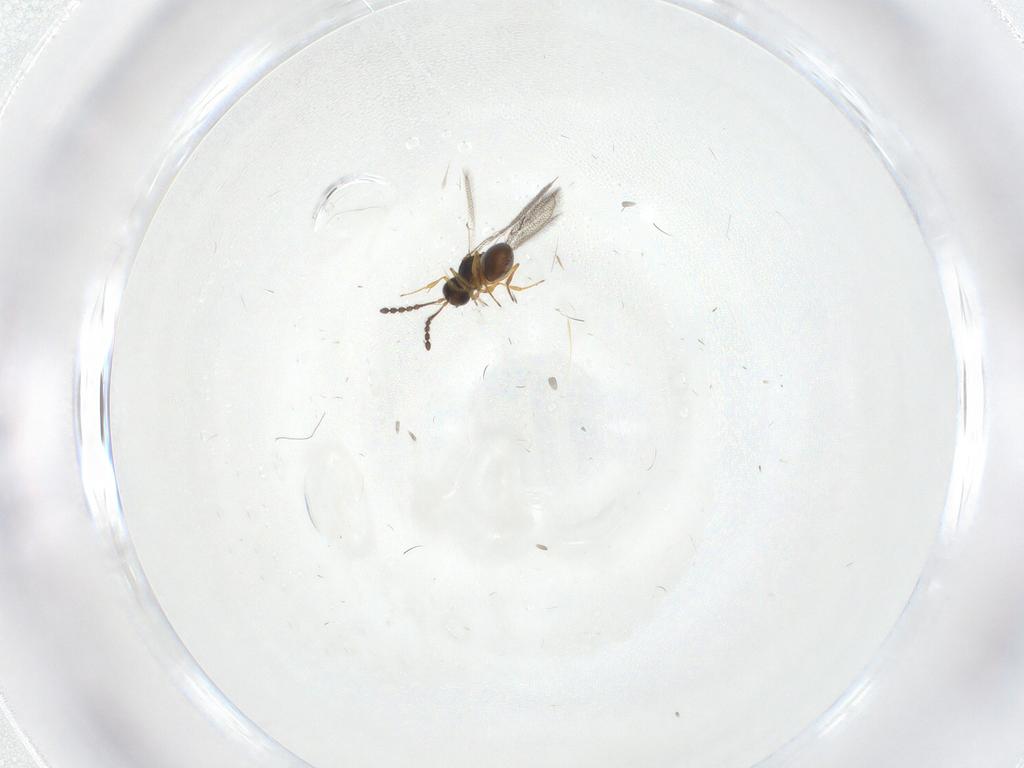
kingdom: Animalia
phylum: Arthropoda
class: Insecta
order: Hymenoptera
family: Figitidae
